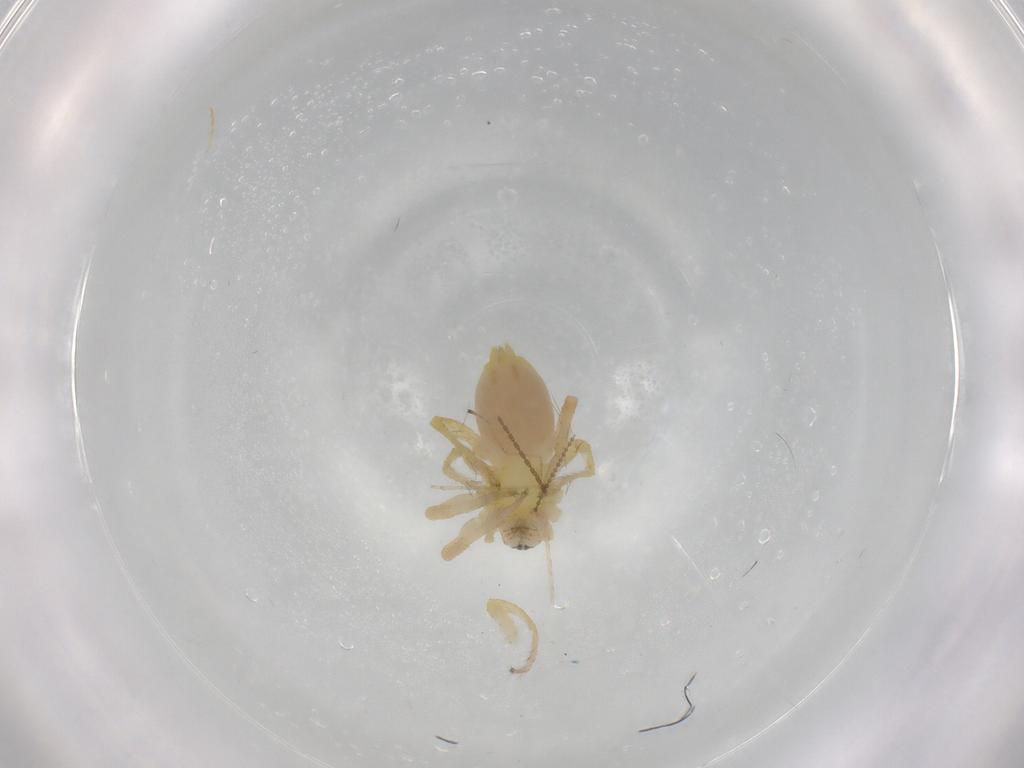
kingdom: Animalia
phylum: Arthropoda
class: Arachnida
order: Araneae
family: Anyphaenidae
